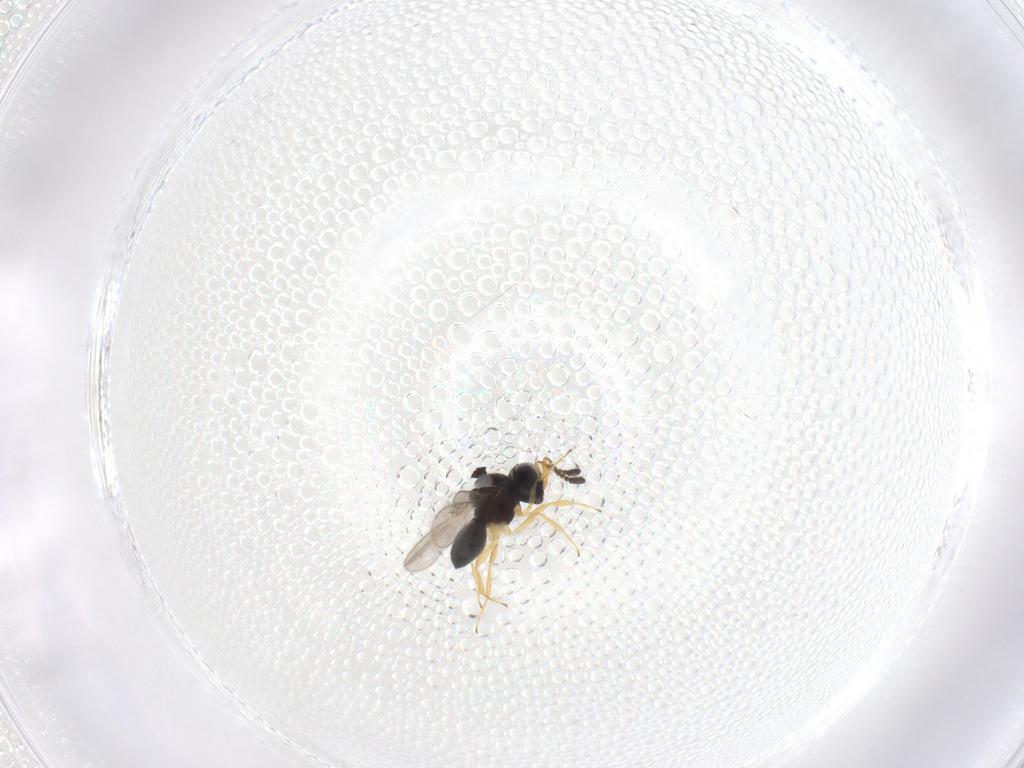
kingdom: Animalia
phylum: Arthropoda
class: Insecta
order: Hymenoptera
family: Scelionidae
